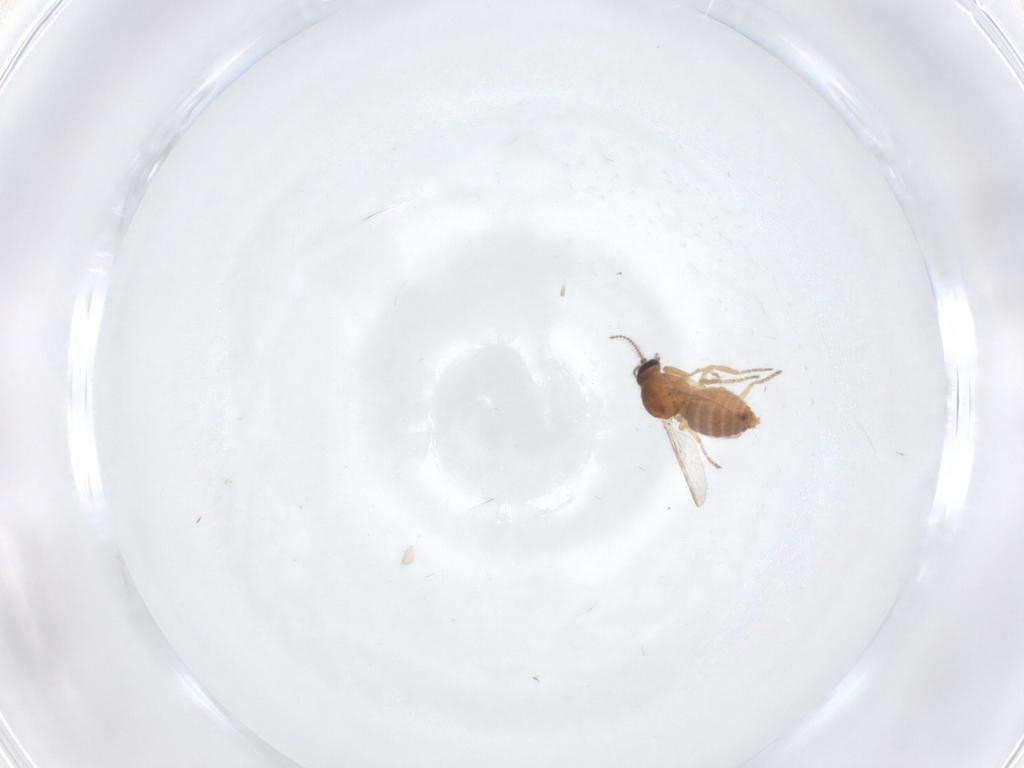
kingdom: Animalia
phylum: Arthropoda
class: Insecta
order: Diptera
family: Ceratopogonidae
